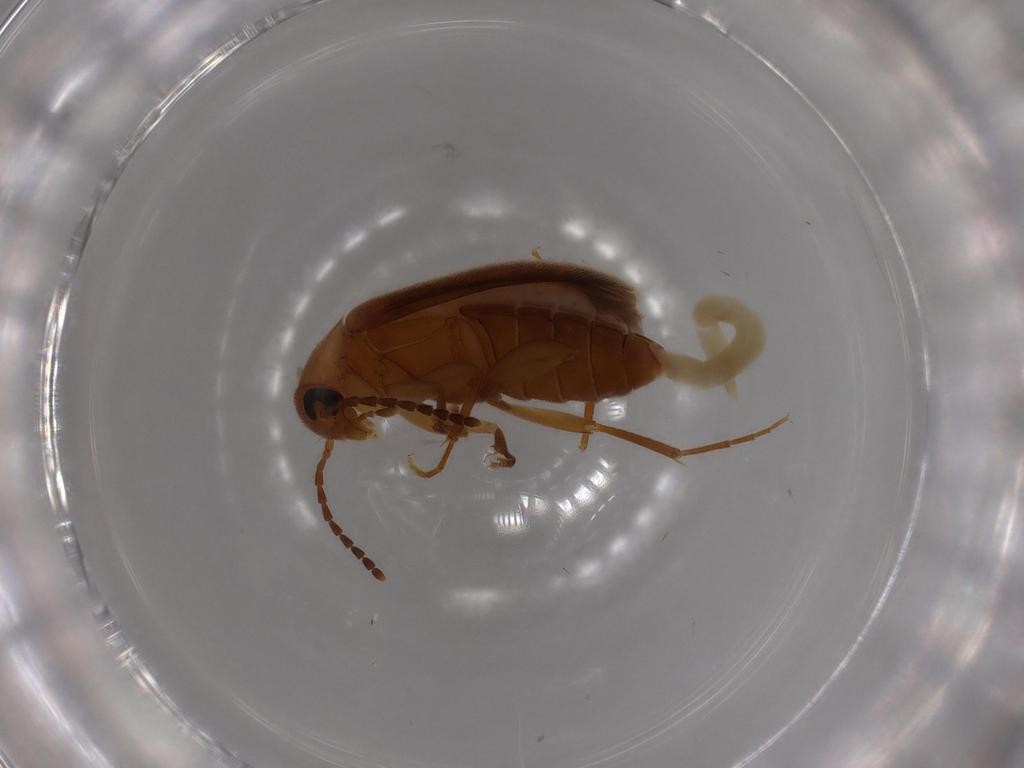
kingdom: Animalia
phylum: Arthropoda
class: Insecta
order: Coleoptera
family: Scraptiidae
